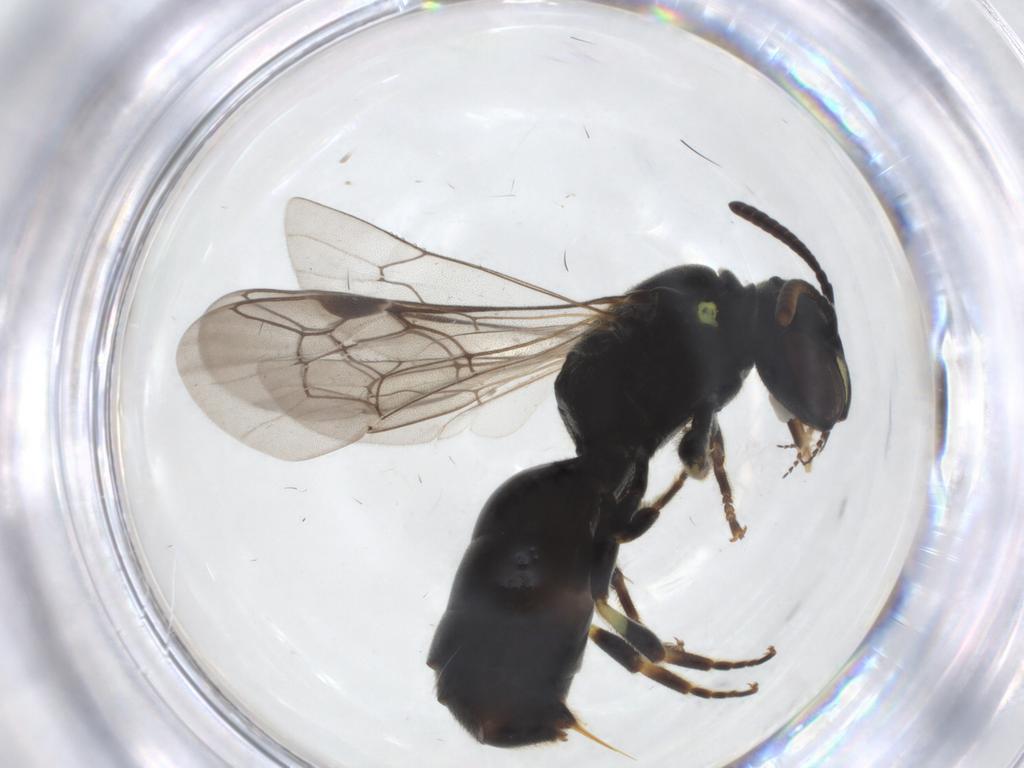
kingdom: Animalia
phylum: Arthropoda
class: Insecta
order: Hymenoptera
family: Colletidae
